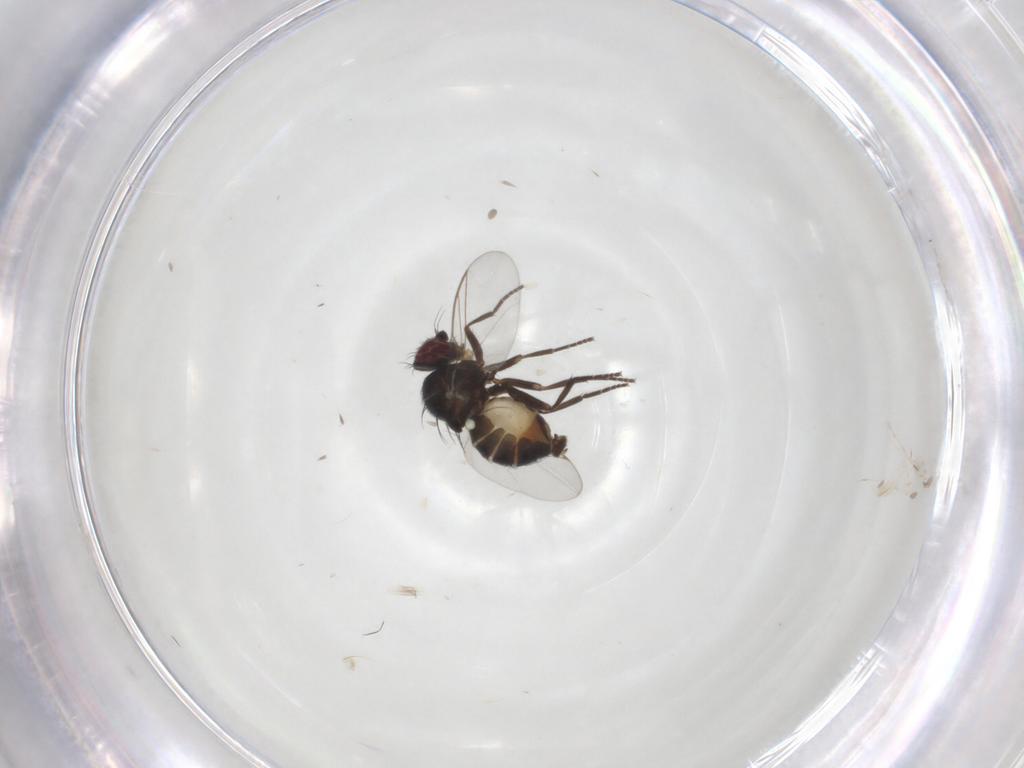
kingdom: Animalia
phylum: Arthropoda
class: Insecta
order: Diptera
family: Agromyzidae
